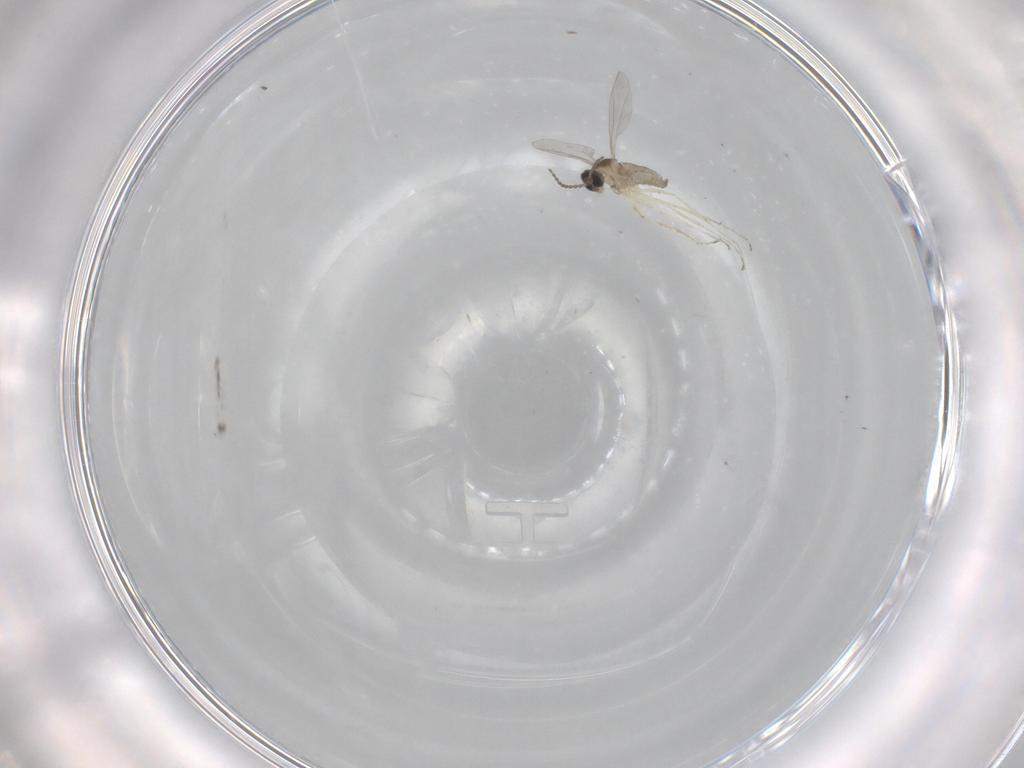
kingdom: Animalia
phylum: Arthropoda
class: Insecta
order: Diptera
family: Cecidomyiidae
